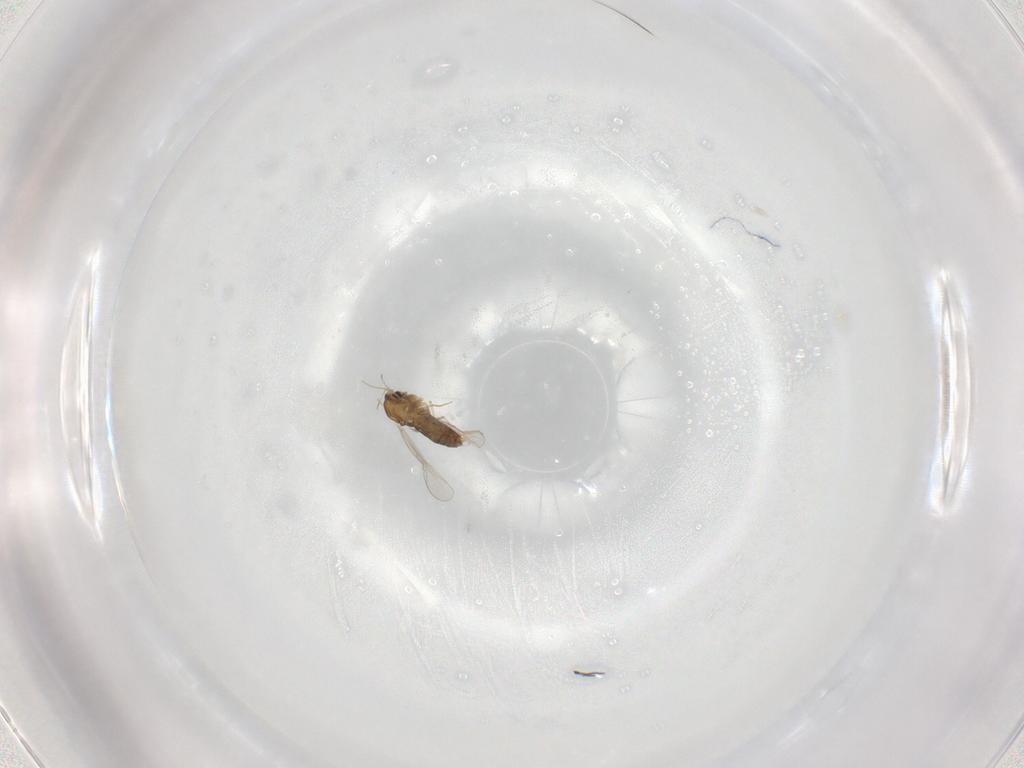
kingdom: Animalia
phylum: Arthropoda
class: Insecta
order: Diptera
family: Chironomidae
